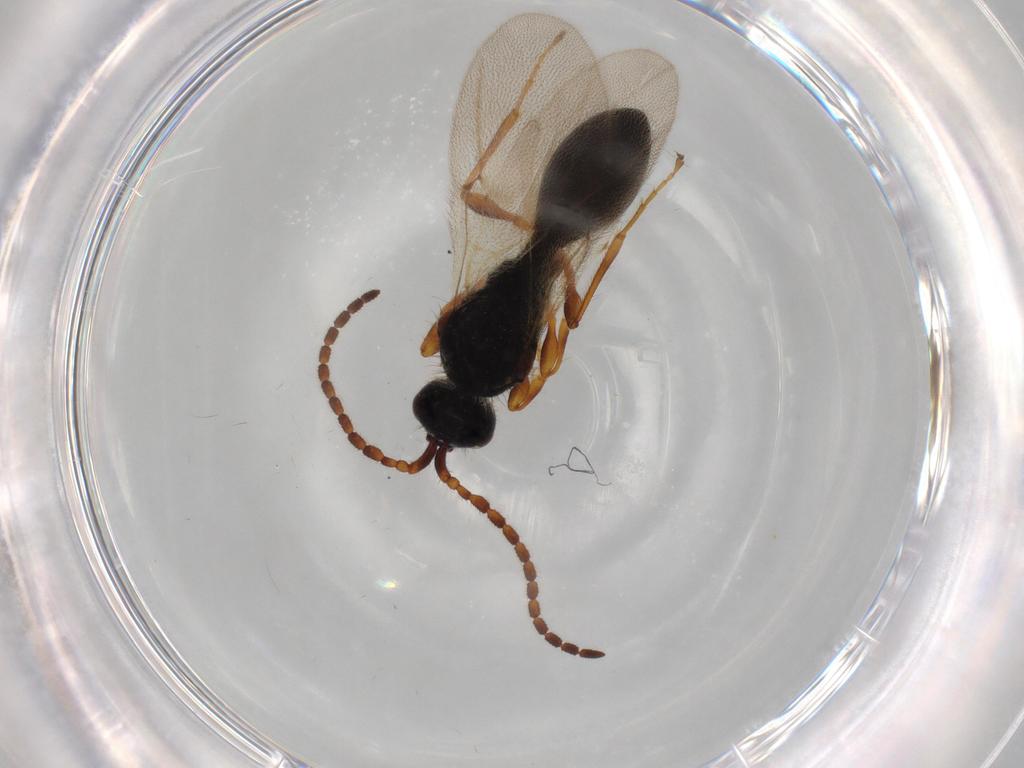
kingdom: Animalia
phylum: Arthropoda
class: Insecta
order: Hymenoptera
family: Diapriidae
